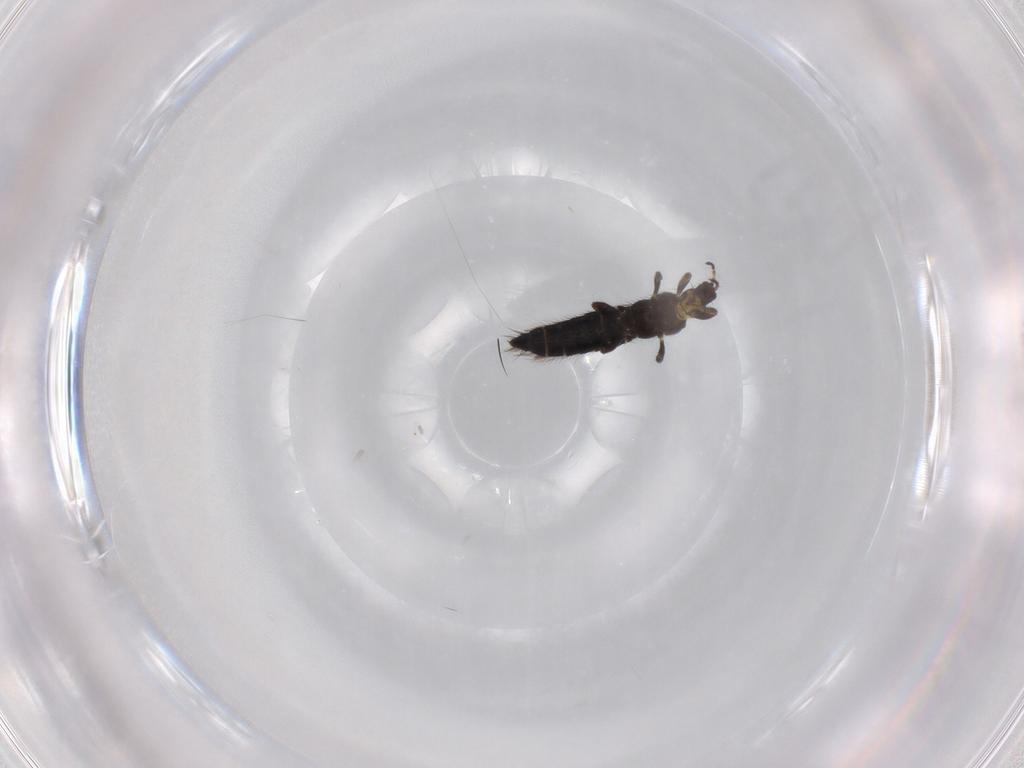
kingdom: Animalia
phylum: Arthropoda
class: Insecta
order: Thysanoptera
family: Thripidae
